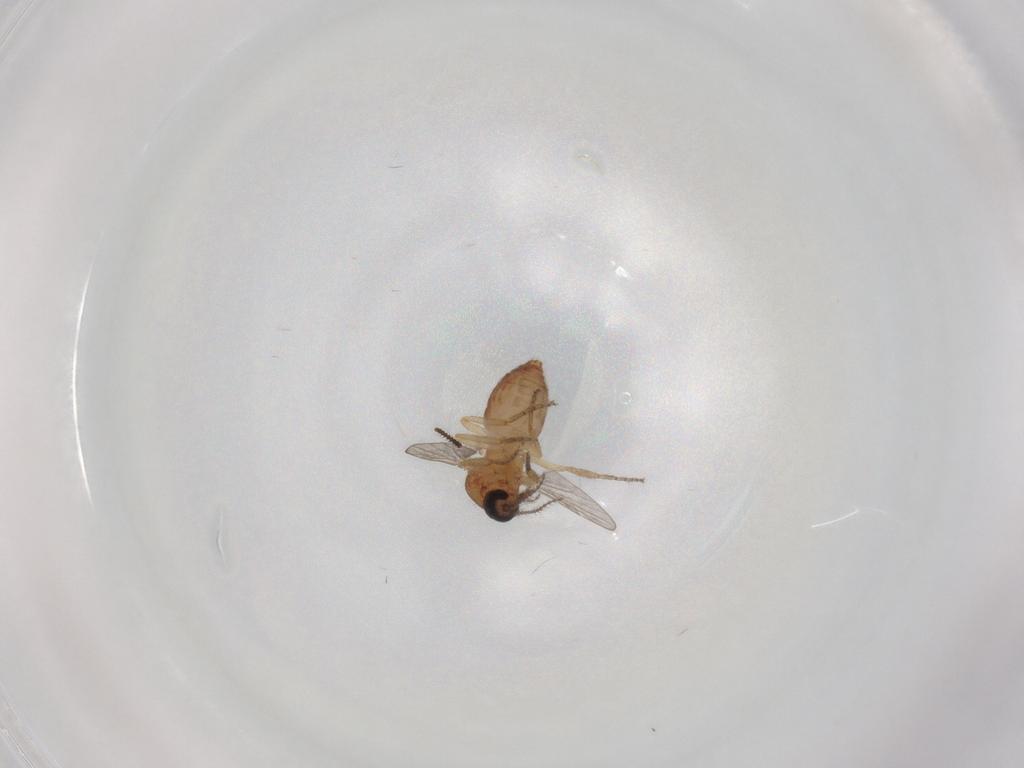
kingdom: Animalia
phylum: Arthropoda
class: Insecta
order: Diptera
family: Ceratopogonidae
